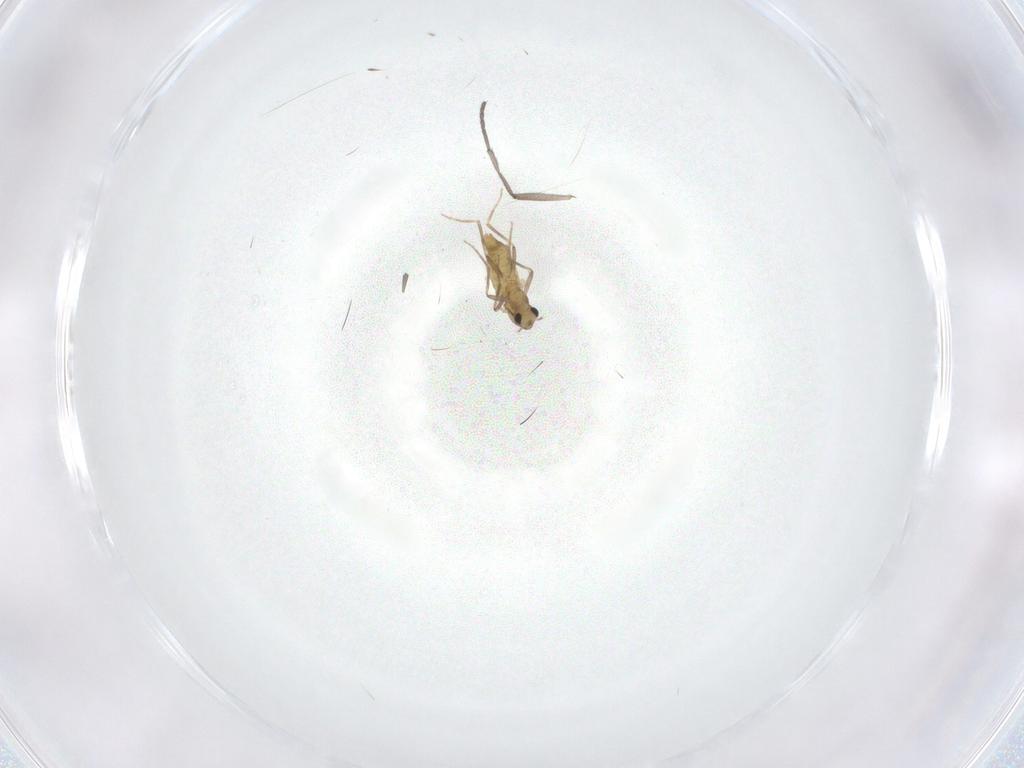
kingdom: Animalia
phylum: Arthropoda
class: Insecta
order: Diptera
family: Chironomidae
